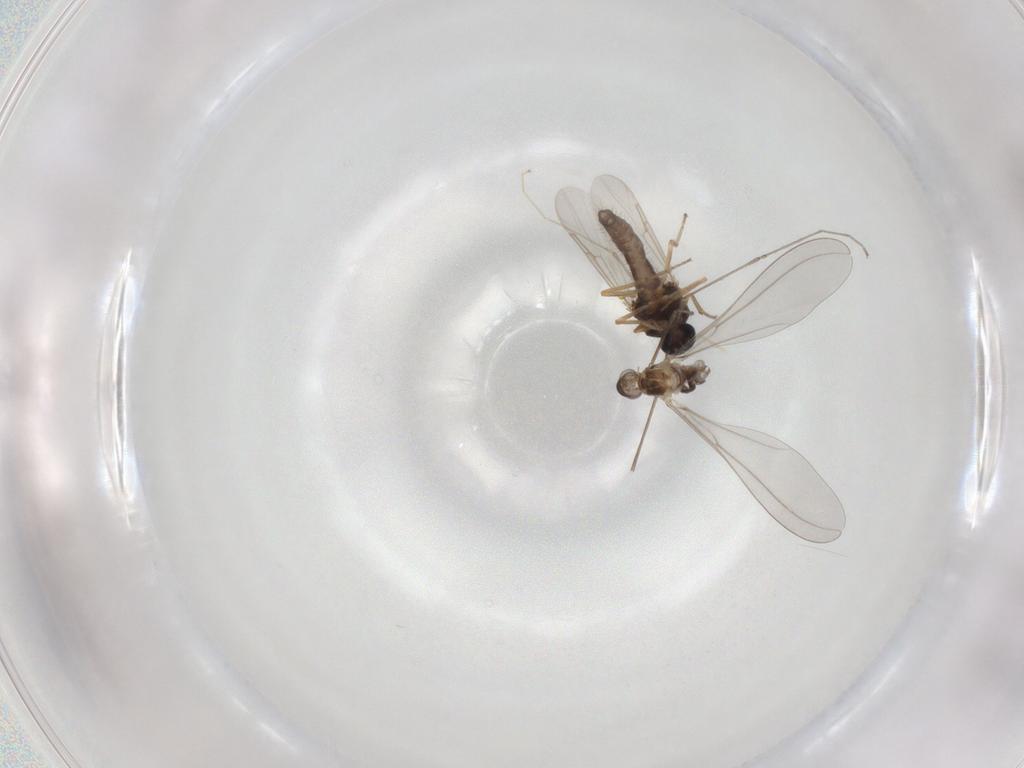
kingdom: Animalia
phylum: Arthropoda
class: Insecta
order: Diptera
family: Ceratopogonidae
